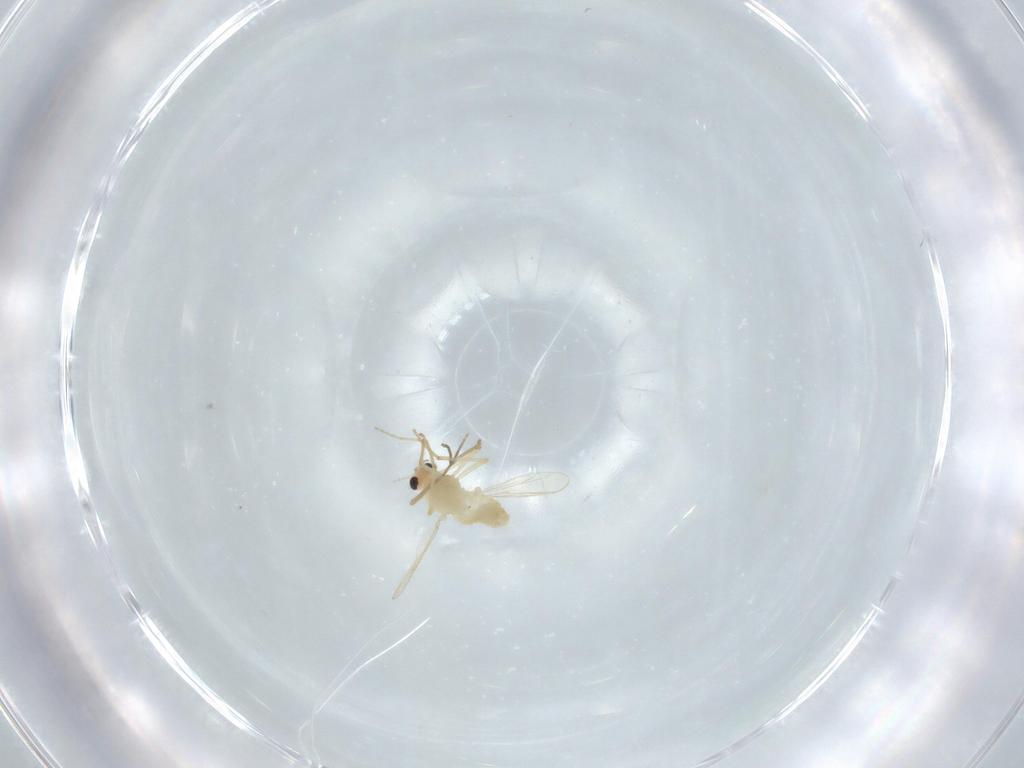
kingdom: Animalia
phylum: Arthropoda
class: Insecta
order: Diptera
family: Chironomidae
